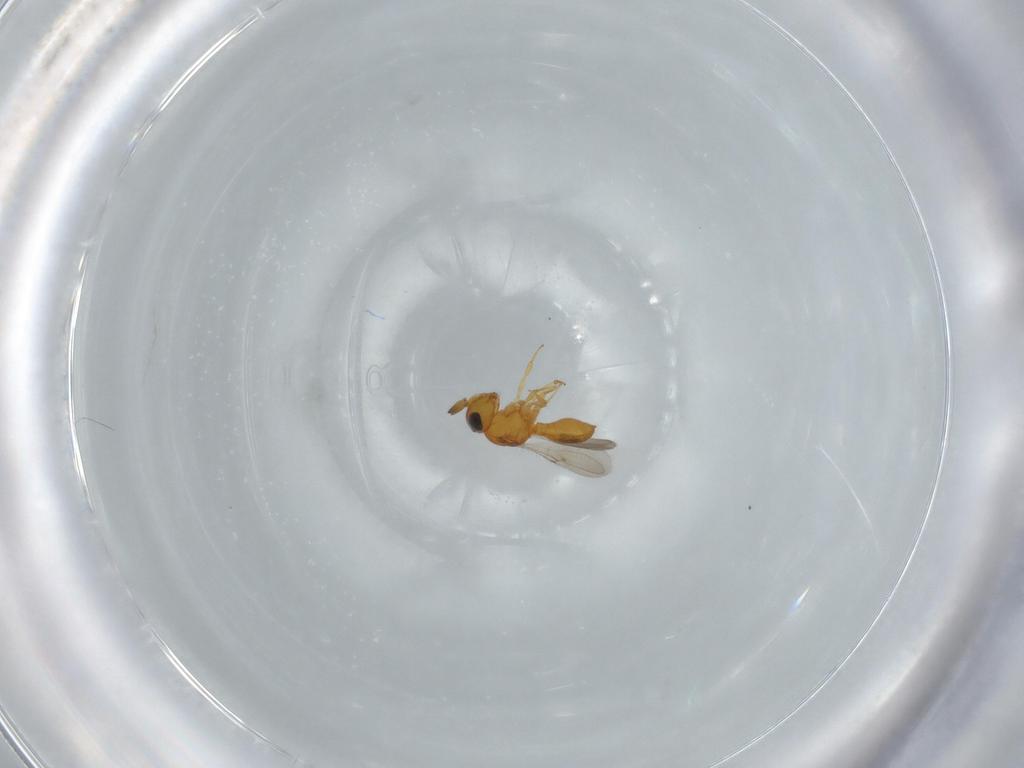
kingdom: Animalia
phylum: Arthropoda
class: Insecta
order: Hymenoptera
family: Scelionidae
